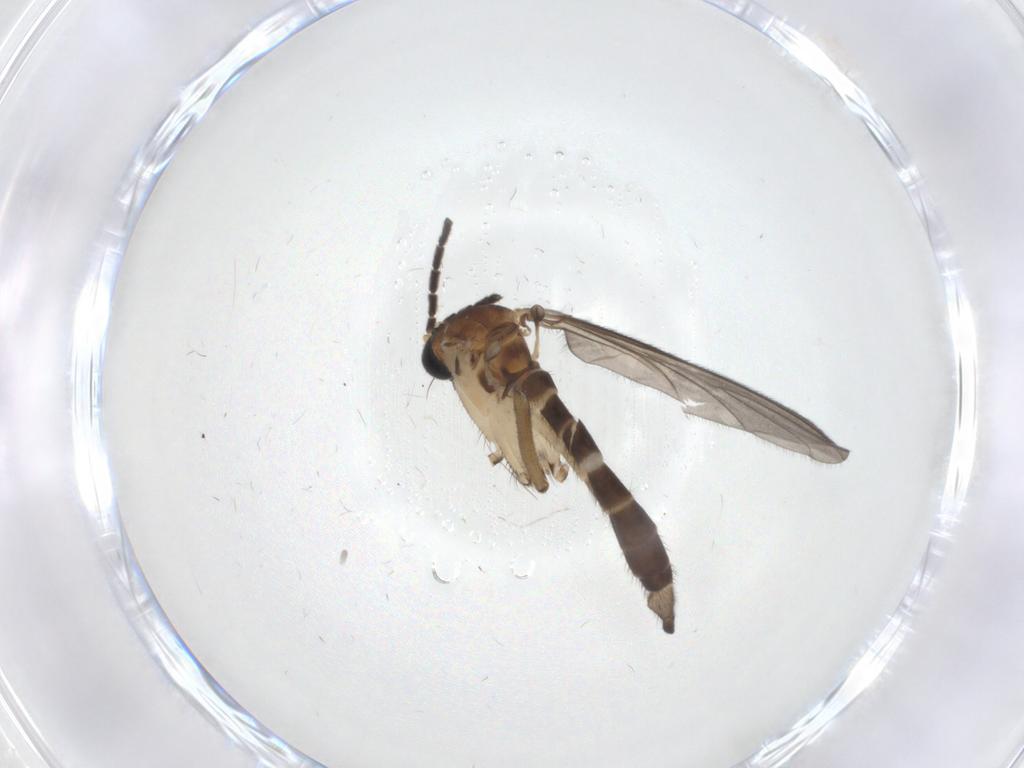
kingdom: Animalia
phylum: Arthropoda
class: Insecta
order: Diptera
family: Sciaridae
